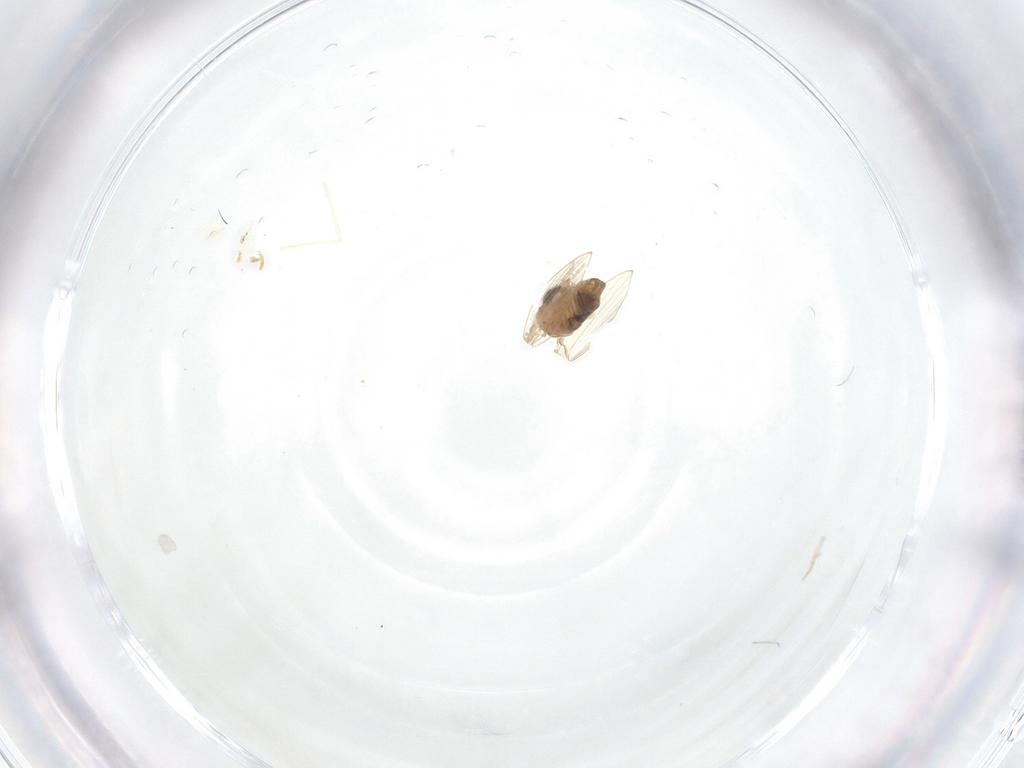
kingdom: Animalia
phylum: Arthropoda
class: Insecta
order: Diptera
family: Cecidomyiidae
